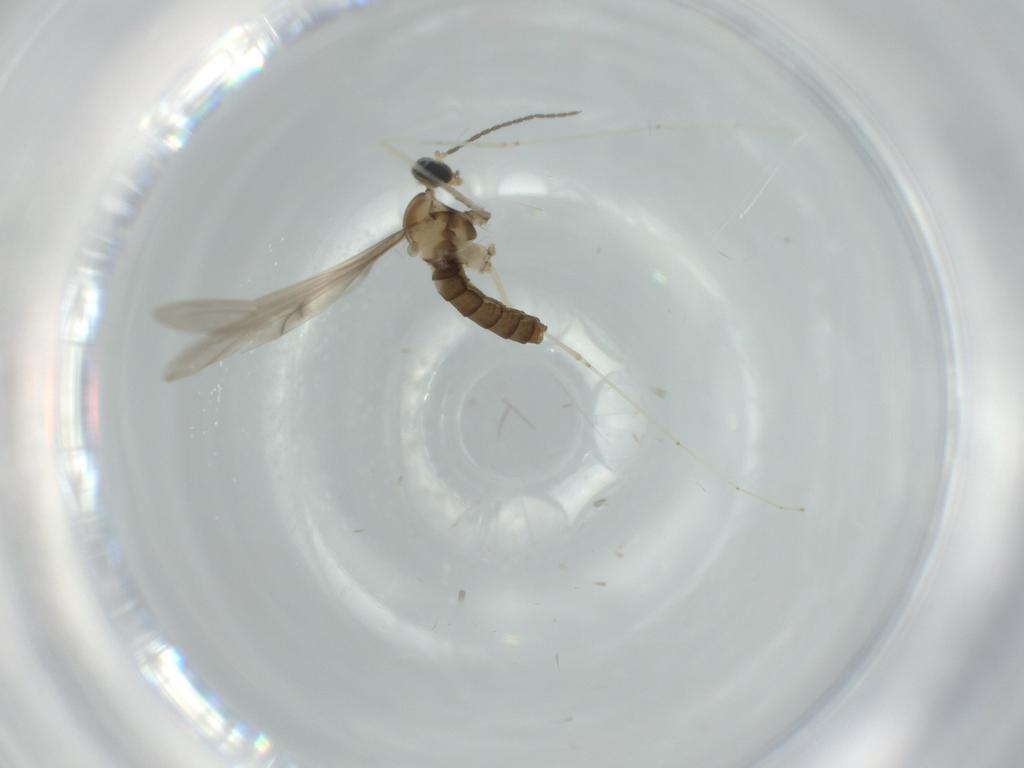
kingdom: Animalia
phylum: Arthropoda
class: Insecta
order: Diptera
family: Cecidomyiidae
